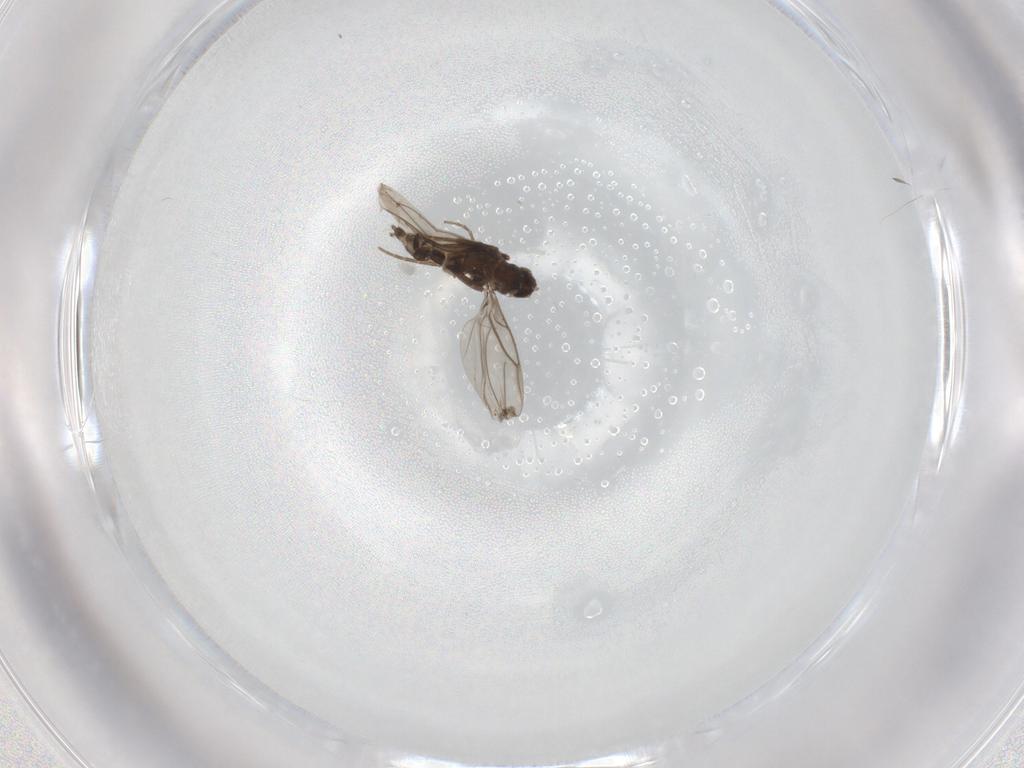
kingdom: Animalia
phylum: Arthropoda
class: Insecta
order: Diptera
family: Phoridae
